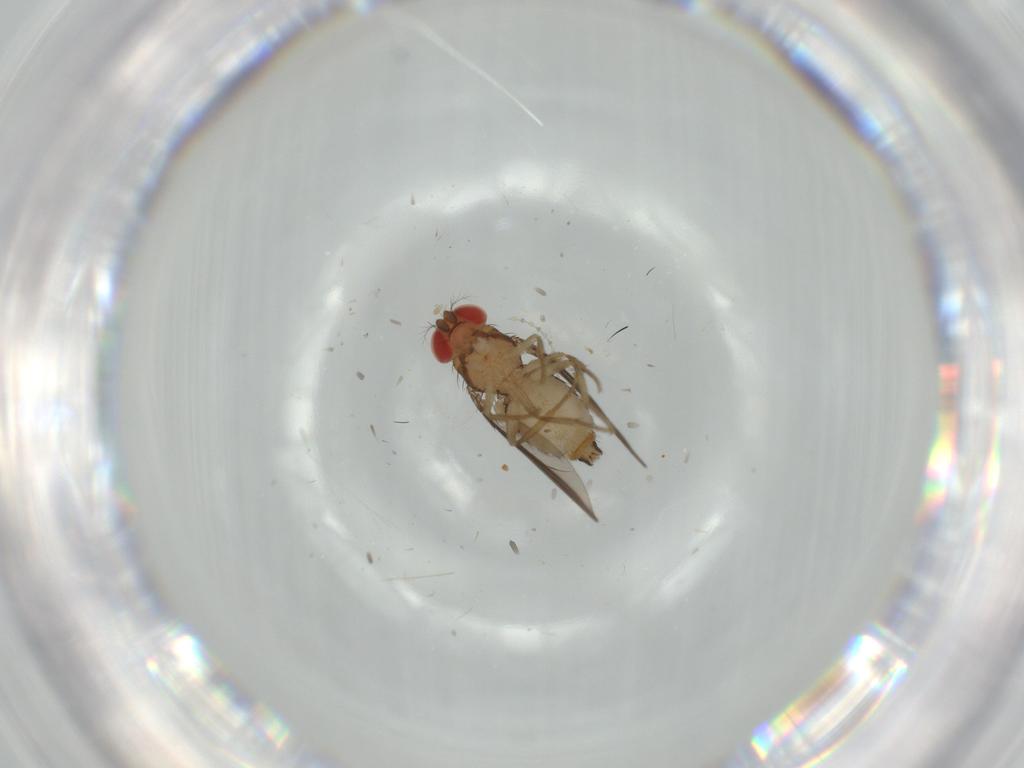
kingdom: Animalia
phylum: Arthropoda
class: Insecta
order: Diptera
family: Drosophilidae
